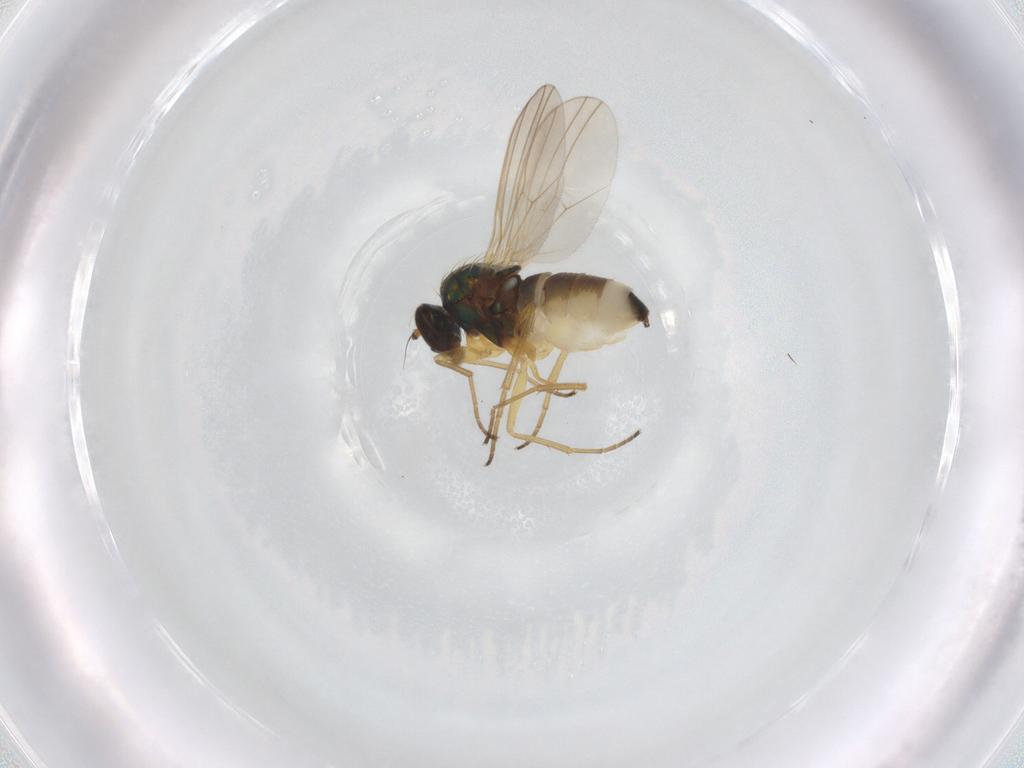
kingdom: Animalia
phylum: Arthropoda
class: Insecta
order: Diptera
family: Dolichopodidae
